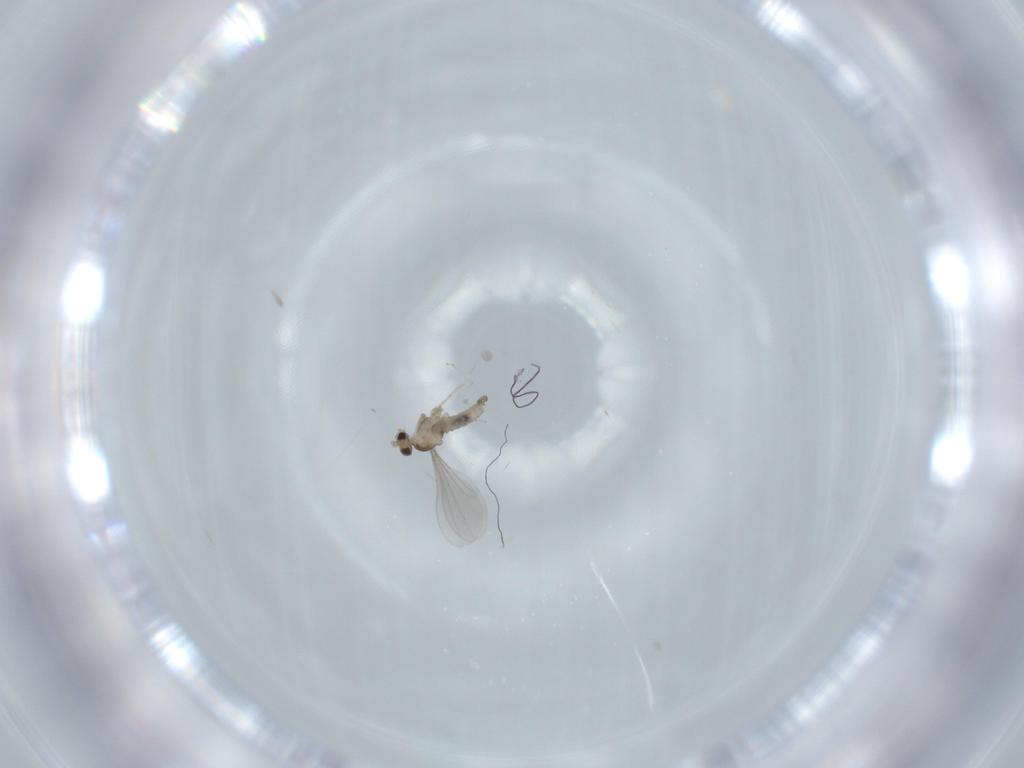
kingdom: Animalia
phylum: Arthropoda
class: Insecta
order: Diptera
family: Cecidomyiidae
